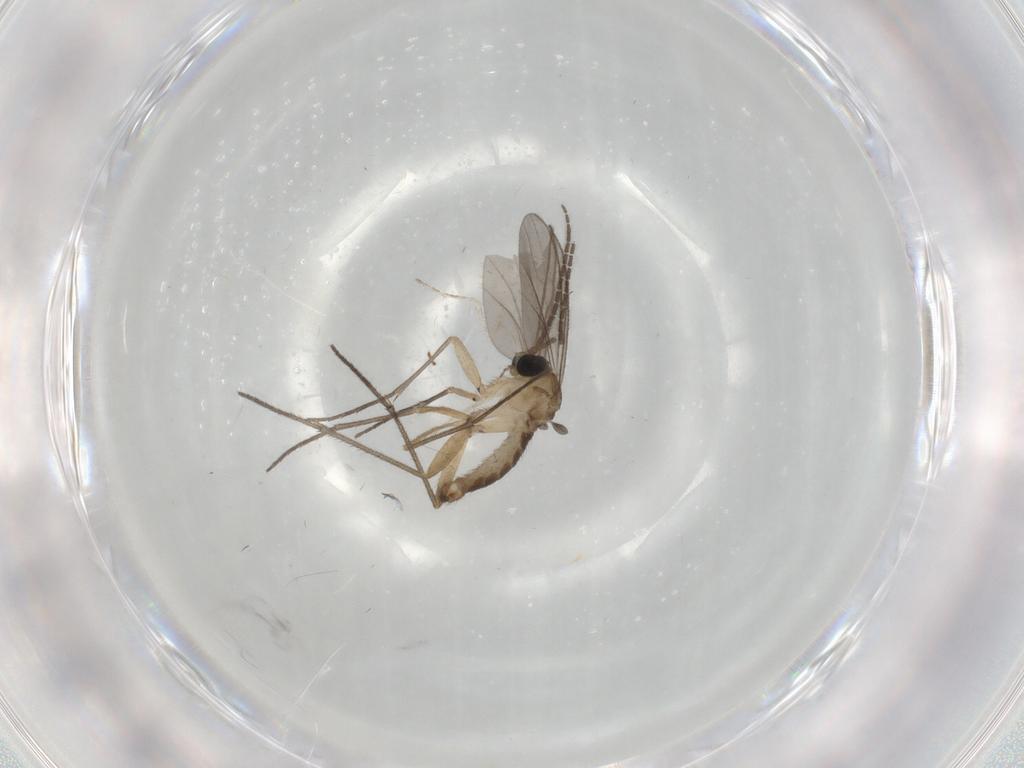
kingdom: Animalia
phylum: Arthropoda
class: Insecta
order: Diptera
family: Sciaridae
